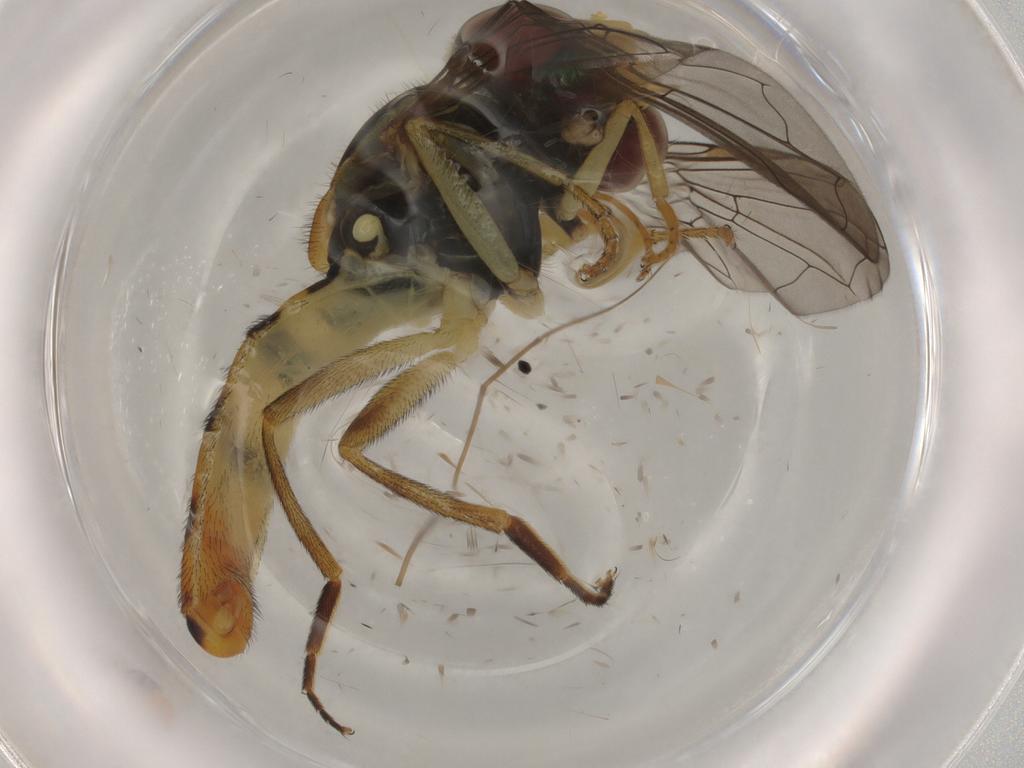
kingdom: Animalia
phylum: Arthropoda
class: Insecta
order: Diptera
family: Syrphidae
